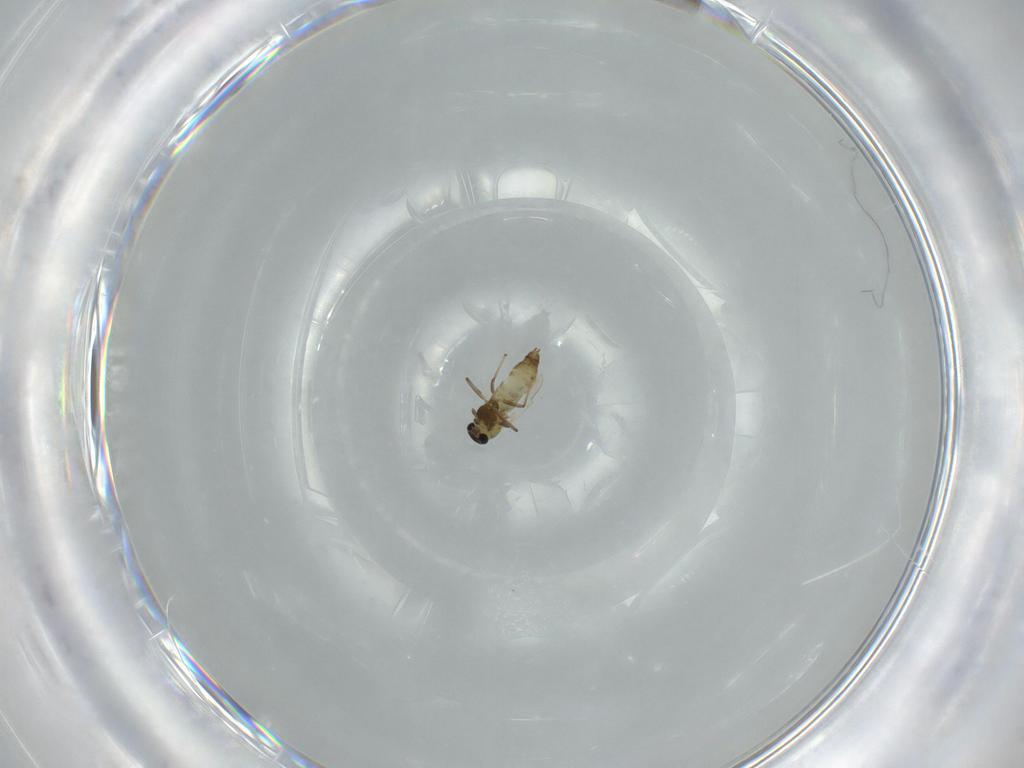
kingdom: Animalia
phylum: Arthropoda
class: Insecta
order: Diptera
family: Chironomidae
